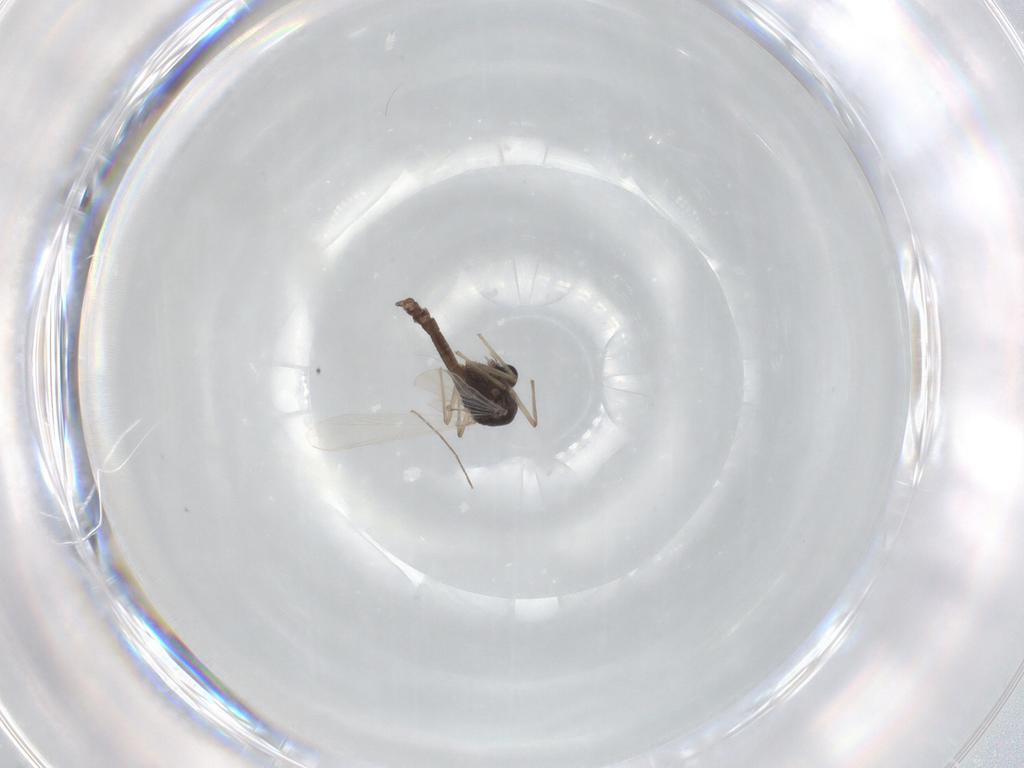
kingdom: Animalia
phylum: Arthropoda
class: Insecta
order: Diptera
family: Chironomidae
